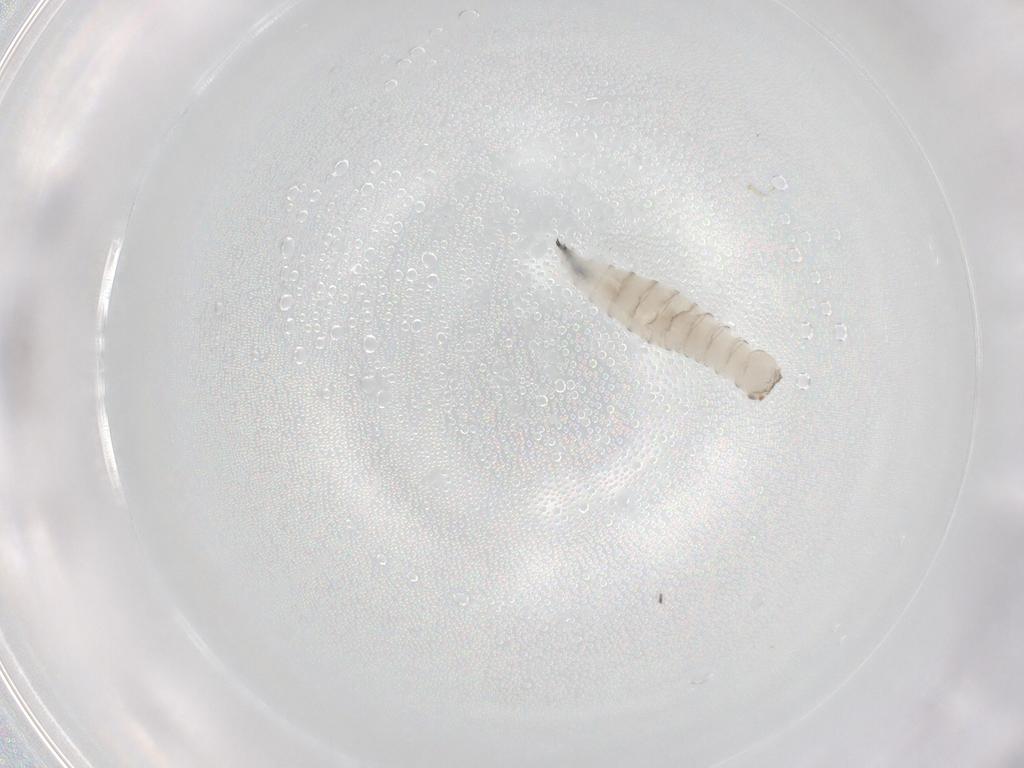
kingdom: Animalia
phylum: Arthropoda
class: Insecta
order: Diptera
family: Sarcophagidae
